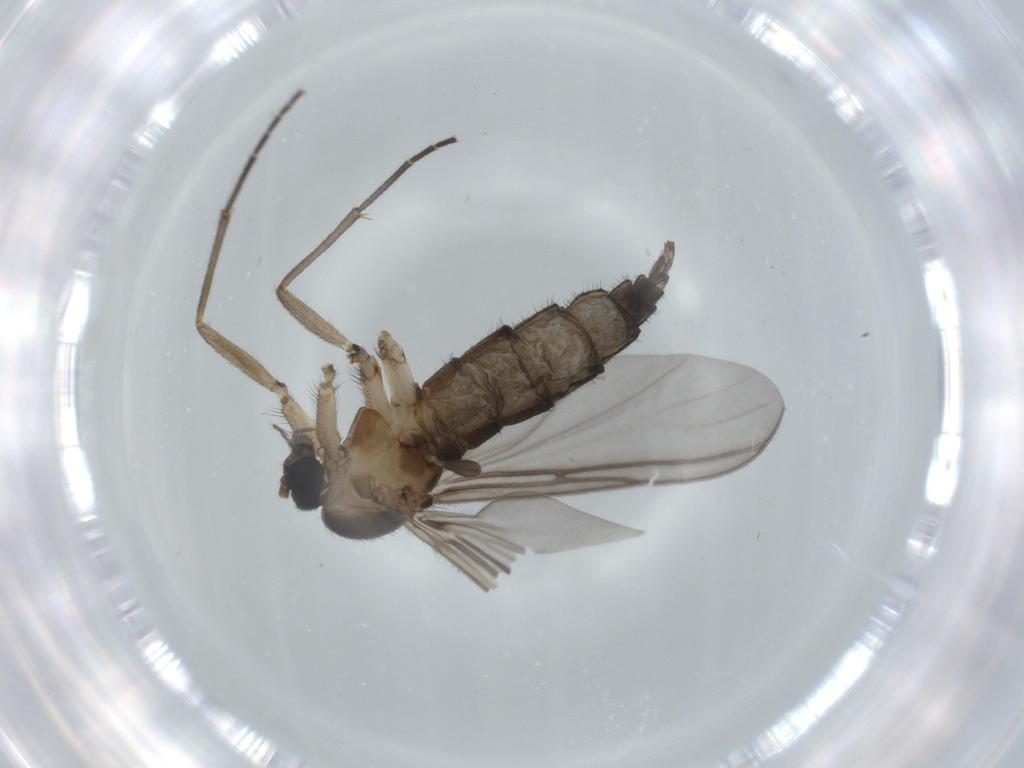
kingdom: Animalia
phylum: Arthropoda
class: Insecta
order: Diptera
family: Sciaridae
